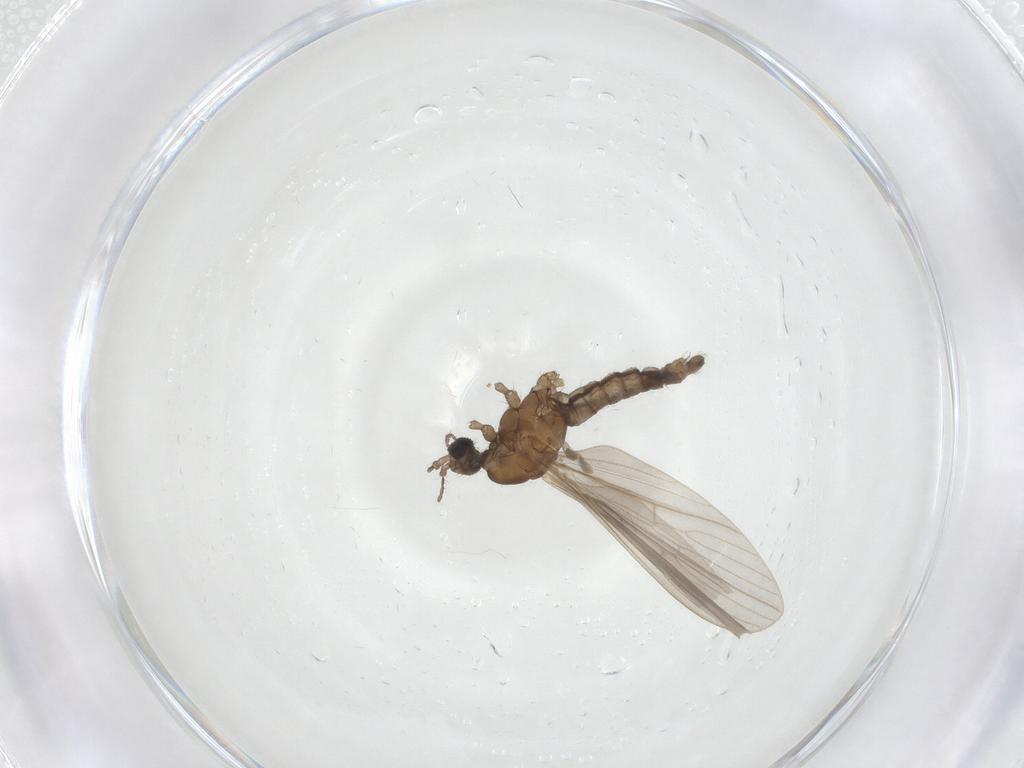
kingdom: Animalia
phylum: Arthropoda
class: Insecta
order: Diptera
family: Limoniidae
